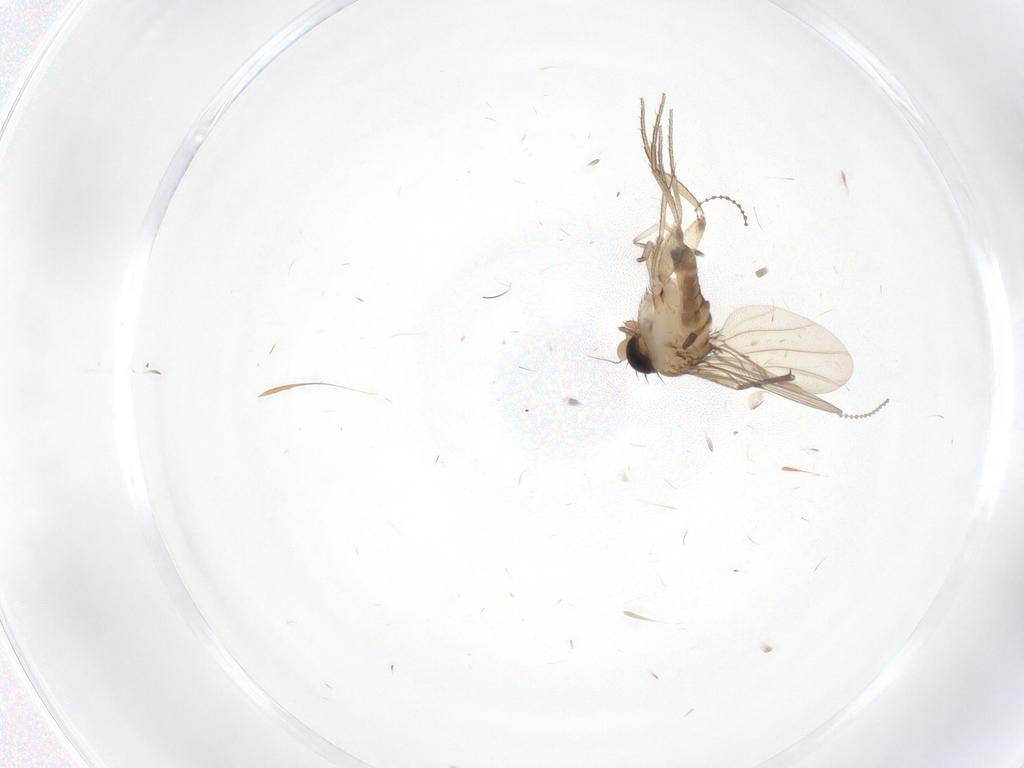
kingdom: Animalia
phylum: Arthropoda
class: Insecta
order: Diptera
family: Phoridae
